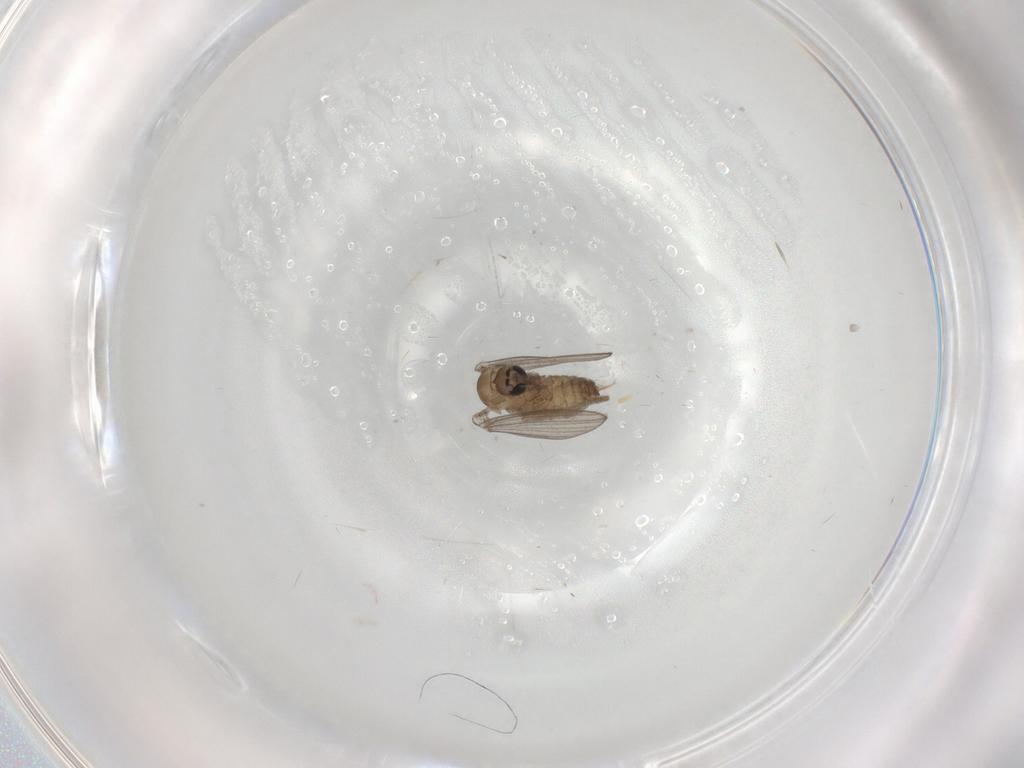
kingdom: Animalia
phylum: Arthropoda
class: Insecta
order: Diptera
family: Psychodidae
